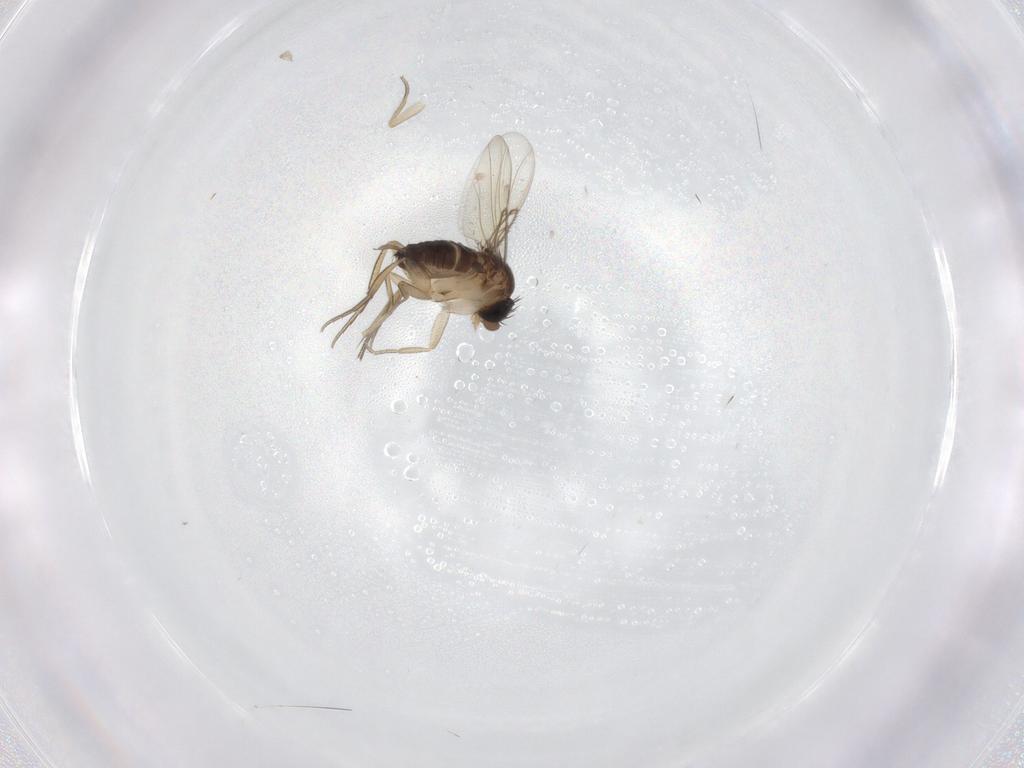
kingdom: Animalia
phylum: Arthropoda
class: Insecta
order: Diptera
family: Phoridae
